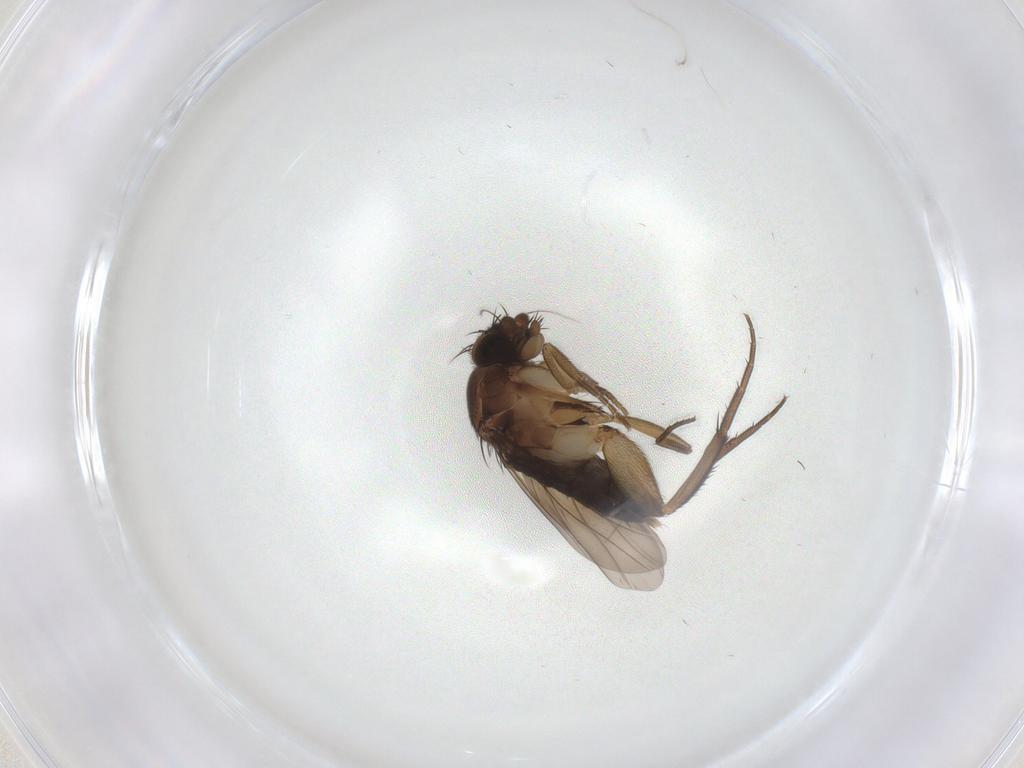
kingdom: Animalia
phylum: Arthropoda
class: Insecta
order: Diptera
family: Phoridae
